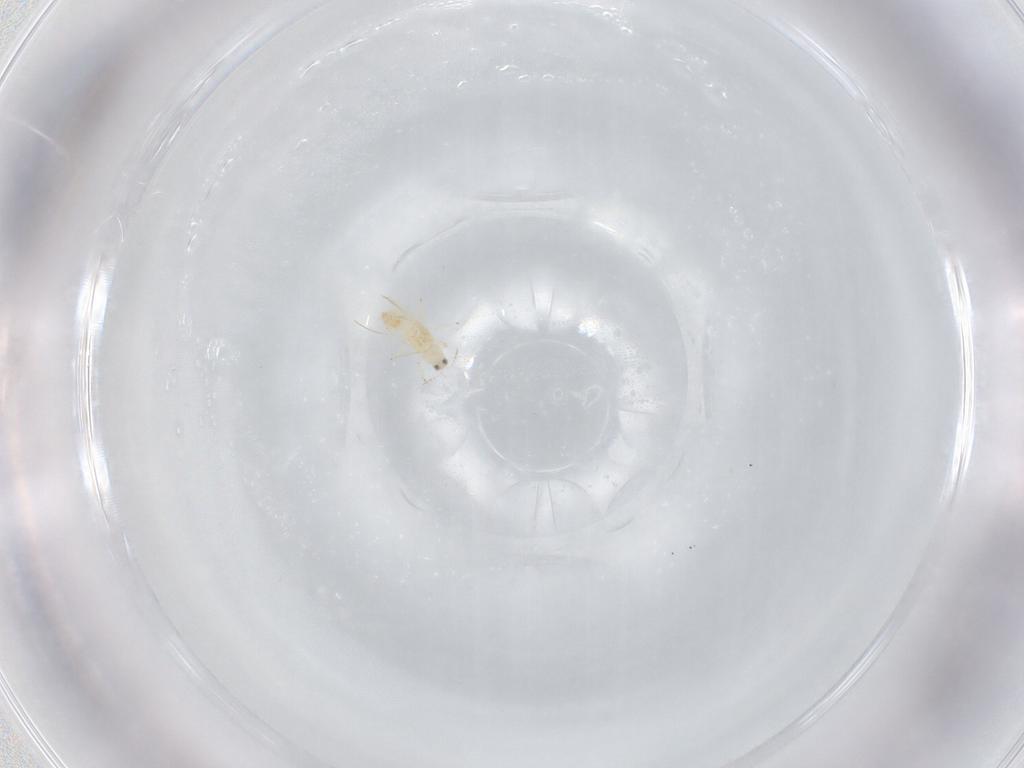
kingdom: Animalia
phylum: Arthropoda
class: Insecta
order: Thysanoptera
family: Thripidae
